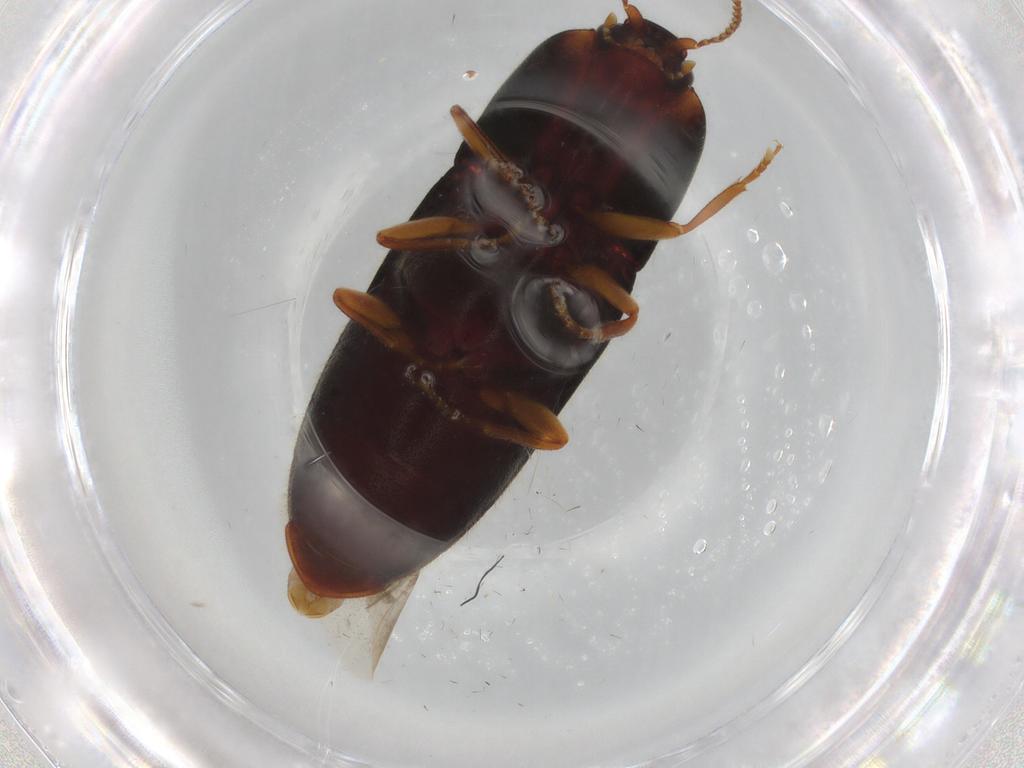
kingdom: Animalia
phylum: Arthropoda
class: Insecta
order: Coleoptera
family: Elateridae
